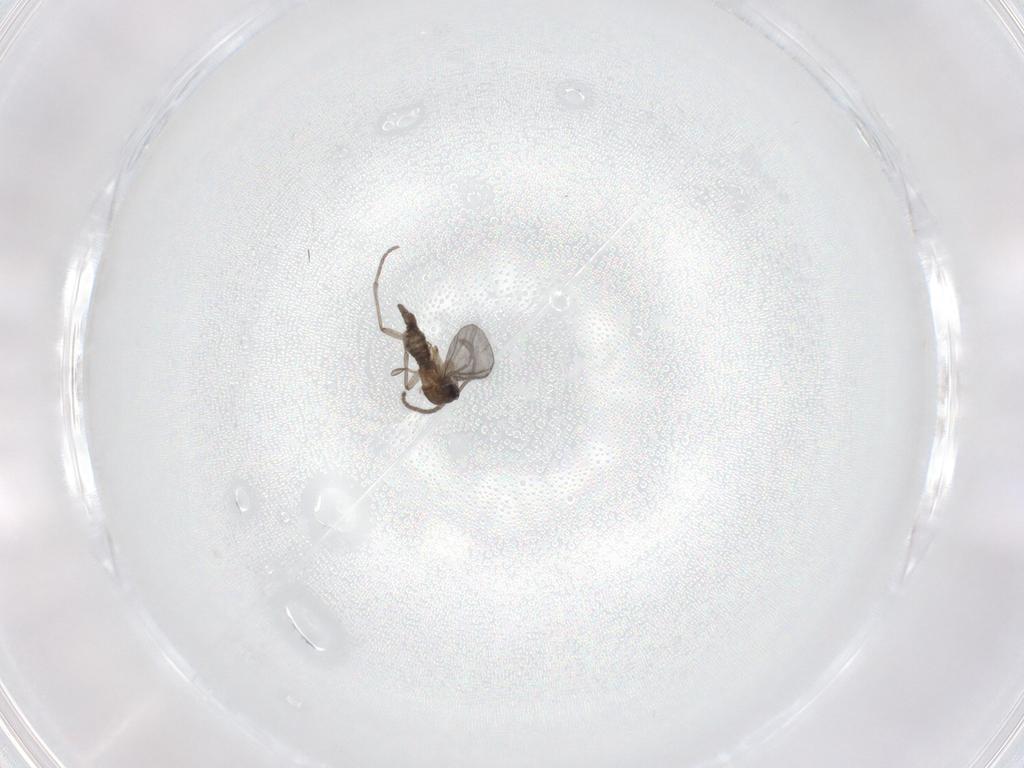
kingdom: Animalia
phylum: Arthropoda
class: Insecta
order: Diptera
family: Sciaridae
